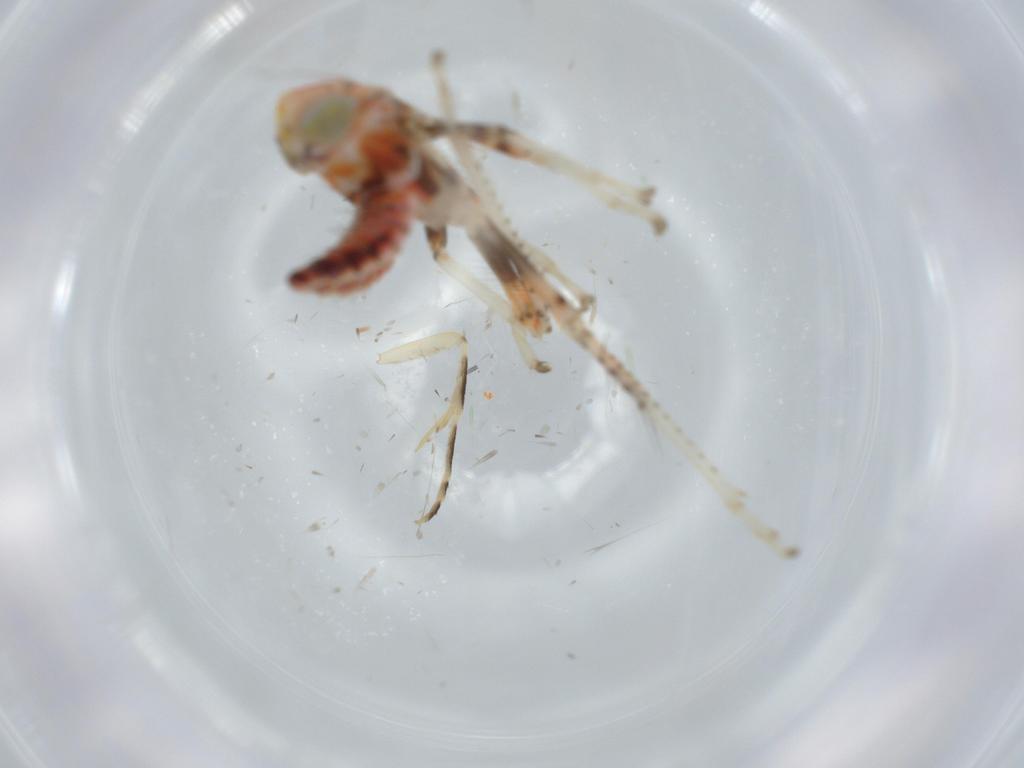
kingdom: Animalia
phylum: Arthropoda
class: Insecta
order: Hemiptera
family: Cicadellidae
